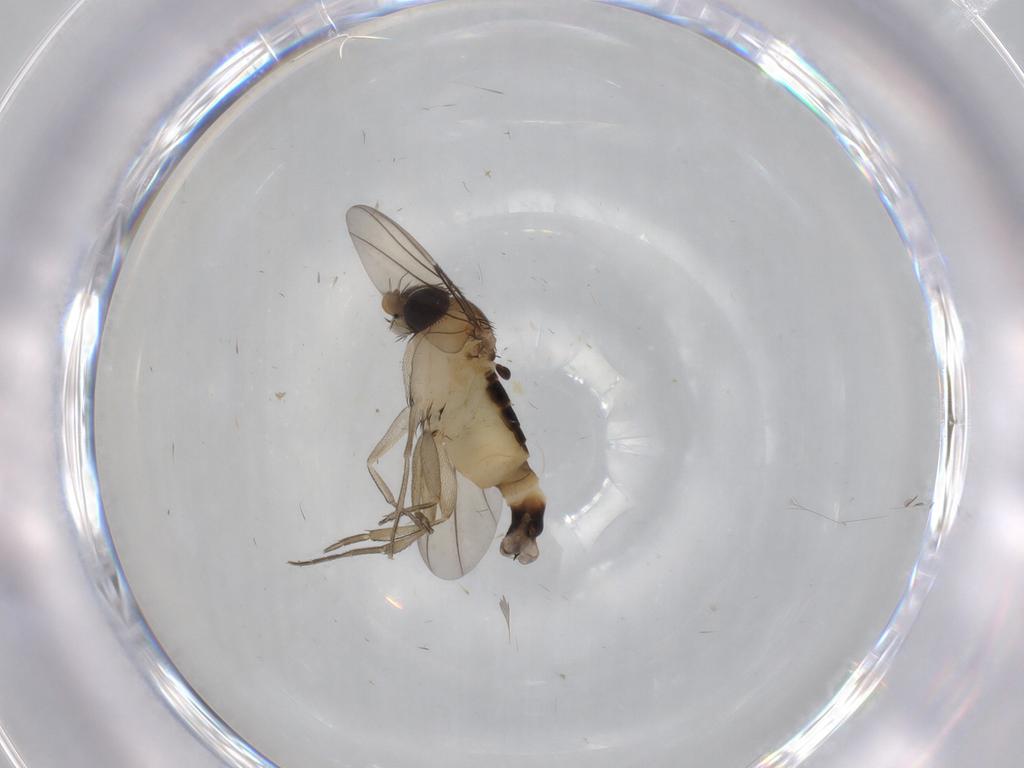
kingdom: Animalia
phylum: Arthropoda
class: Insecta
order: Diptera
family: Phoridae
